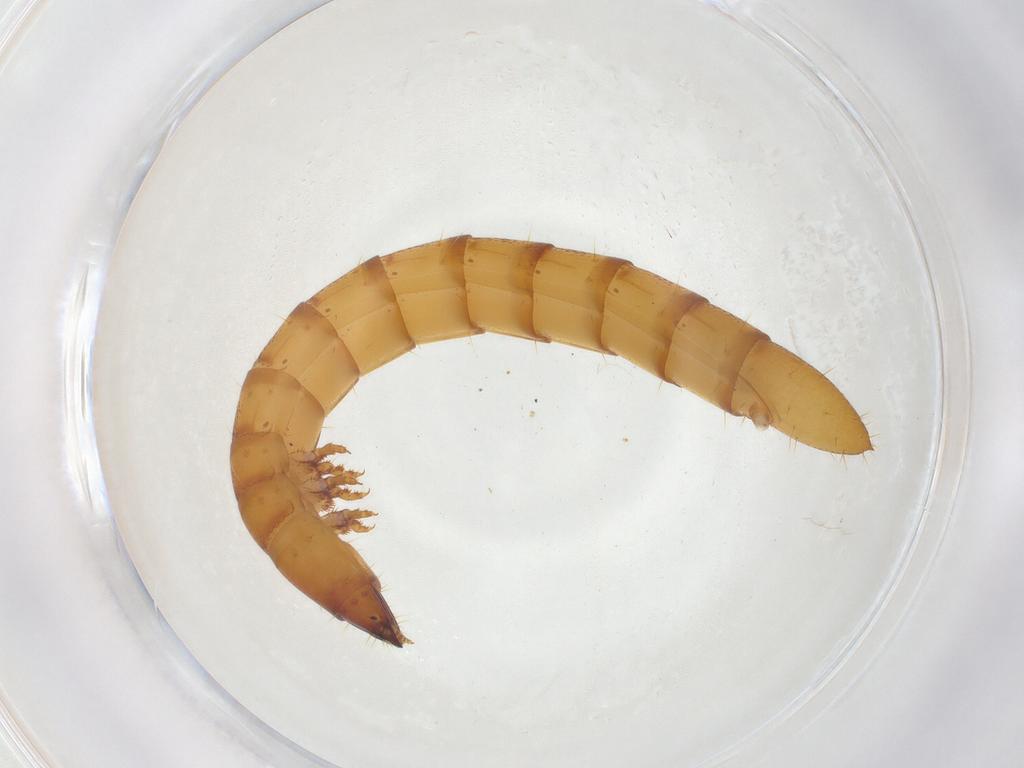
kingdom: Animalia
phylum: Arthropoda
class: Insecta
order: Coleoptera
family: Elateridae
